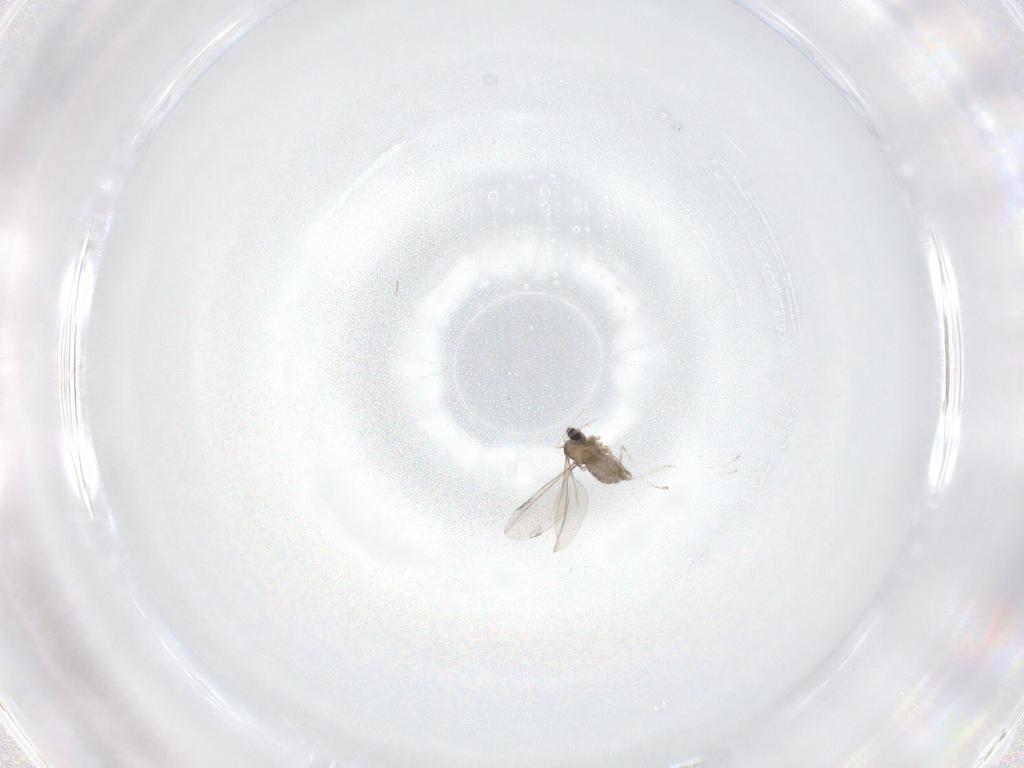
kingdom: Animalia
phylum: Arthropoda
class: Insecta
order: Diptera
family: Cecidomyiidae
